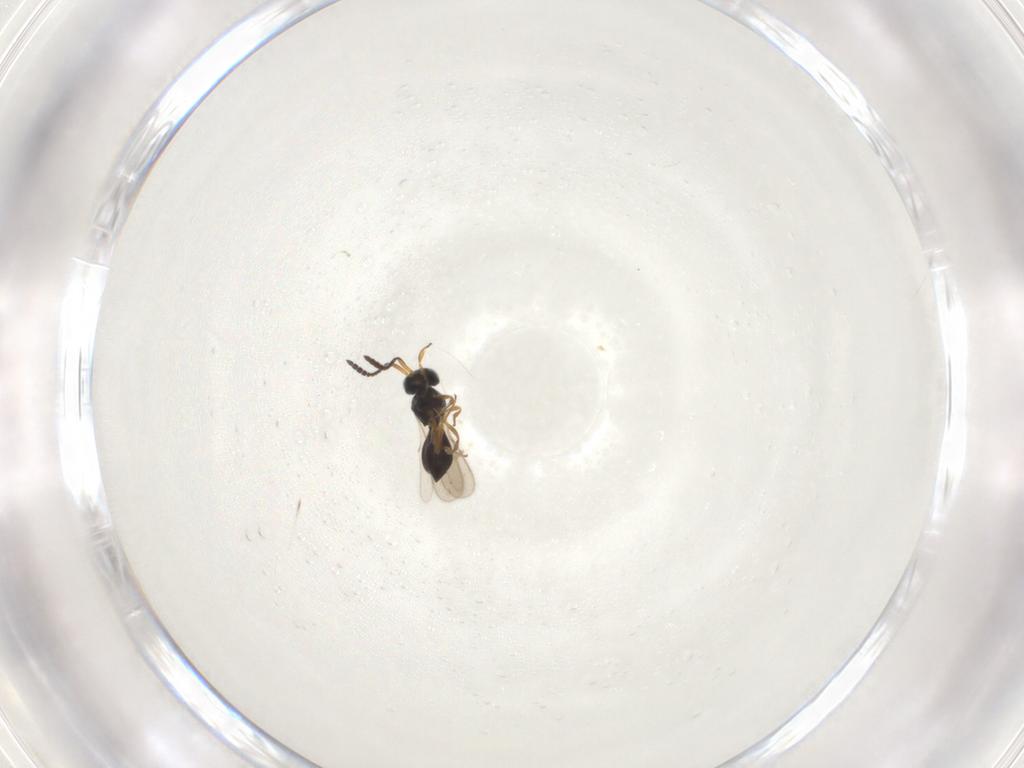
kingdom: Animalia
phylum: Arthropoda
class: Insecta
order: Hymenoptera
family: Scelionidae
